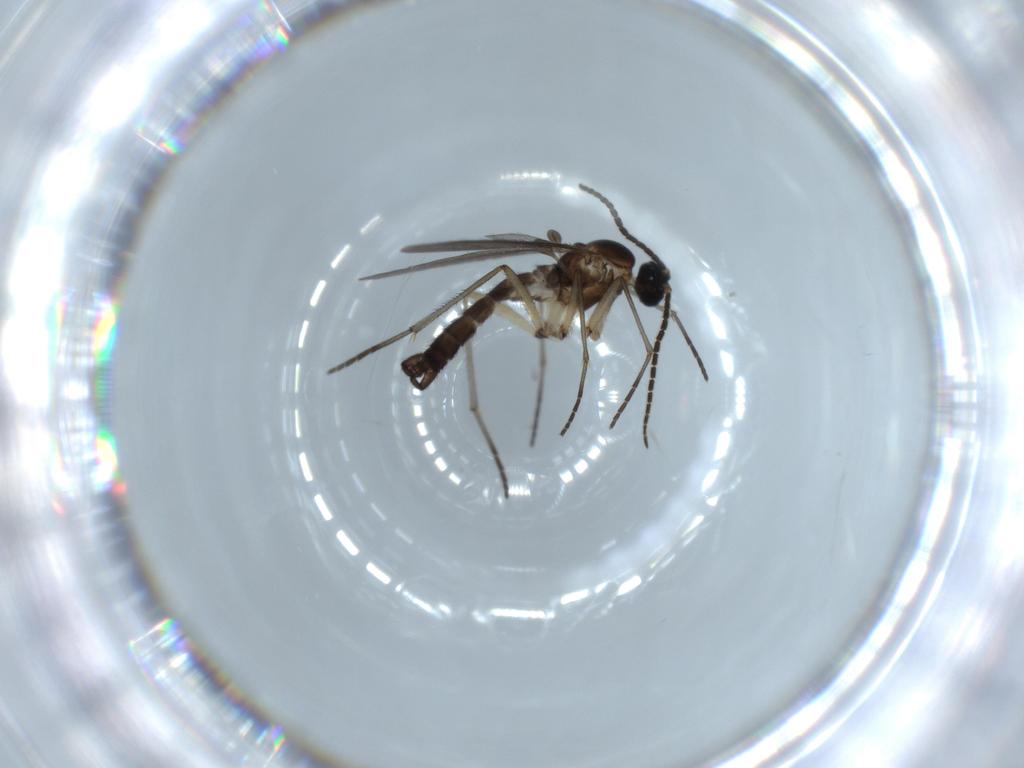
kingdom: Animalia
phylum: Arthropoda
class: Insecta
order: Diptera
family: Sciaridae
